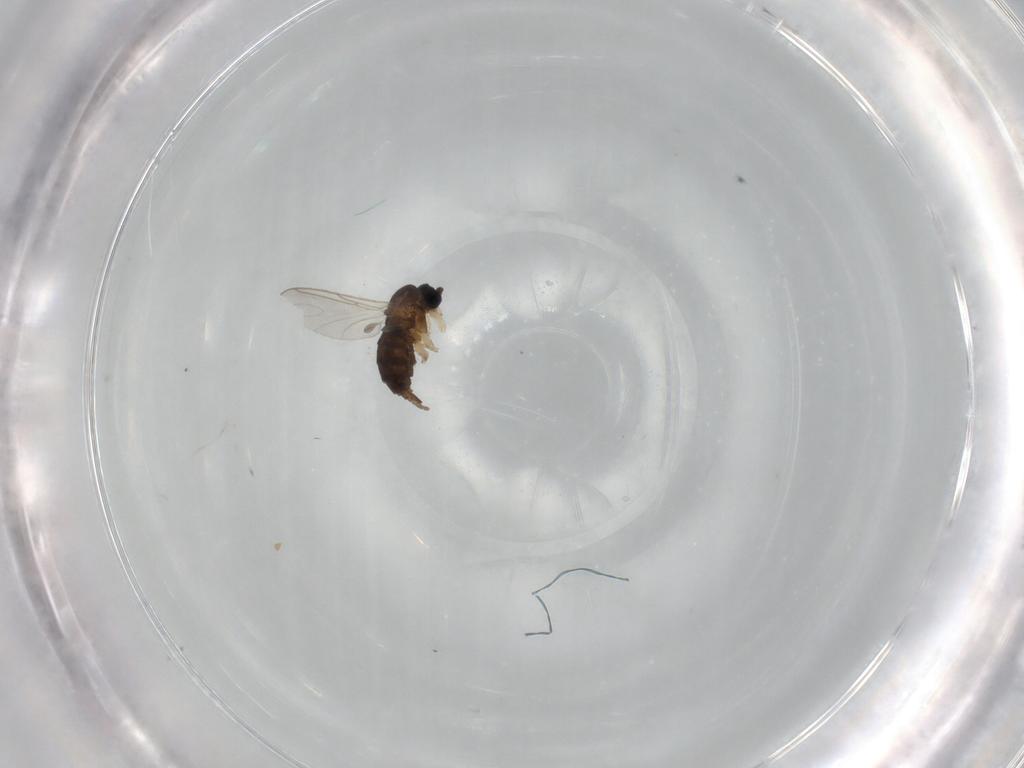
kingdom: Animalia
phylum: Arthropoda
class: Insecta
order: Diptera
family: Sciaridae
